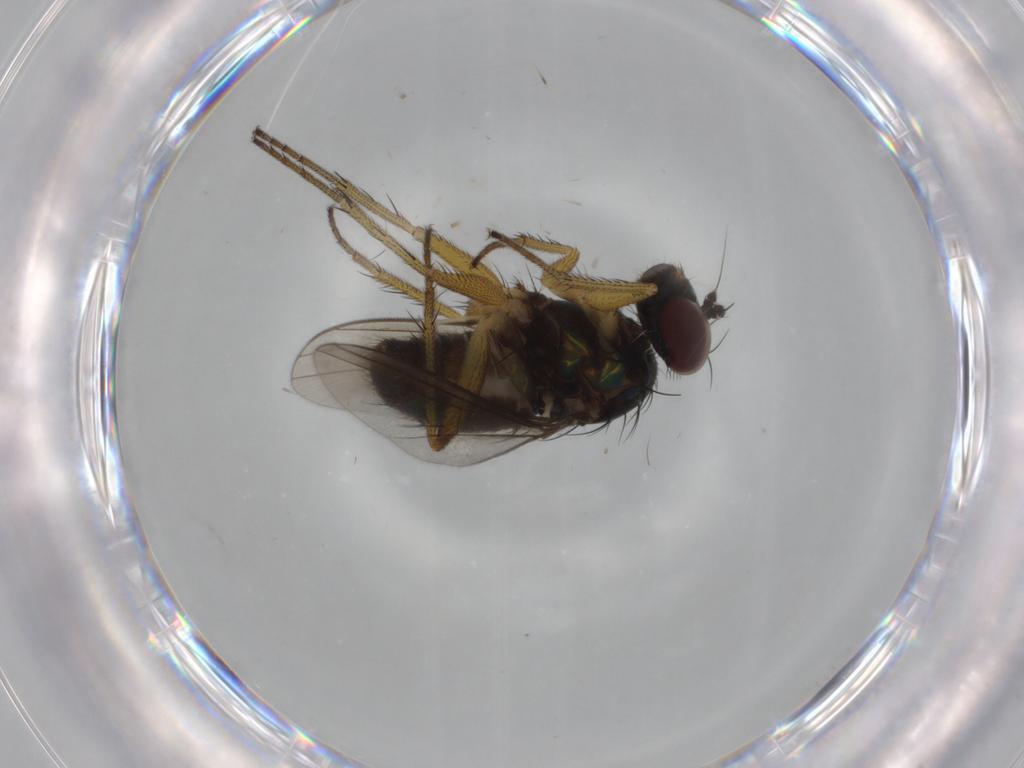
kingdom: Animalia
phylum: Arthropoda
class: Insecta
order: Diptera
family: Dolichopodidae
